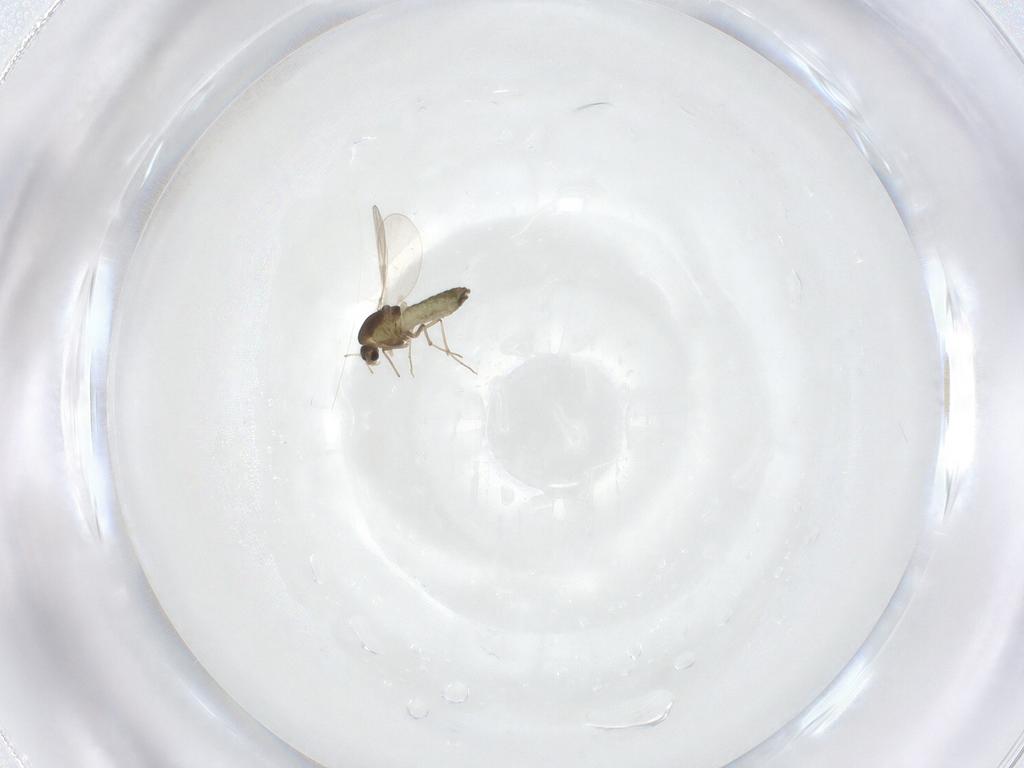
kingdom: Animalia
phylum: Arthropoda
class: Insecta
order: Diptera
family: Chironomidae
